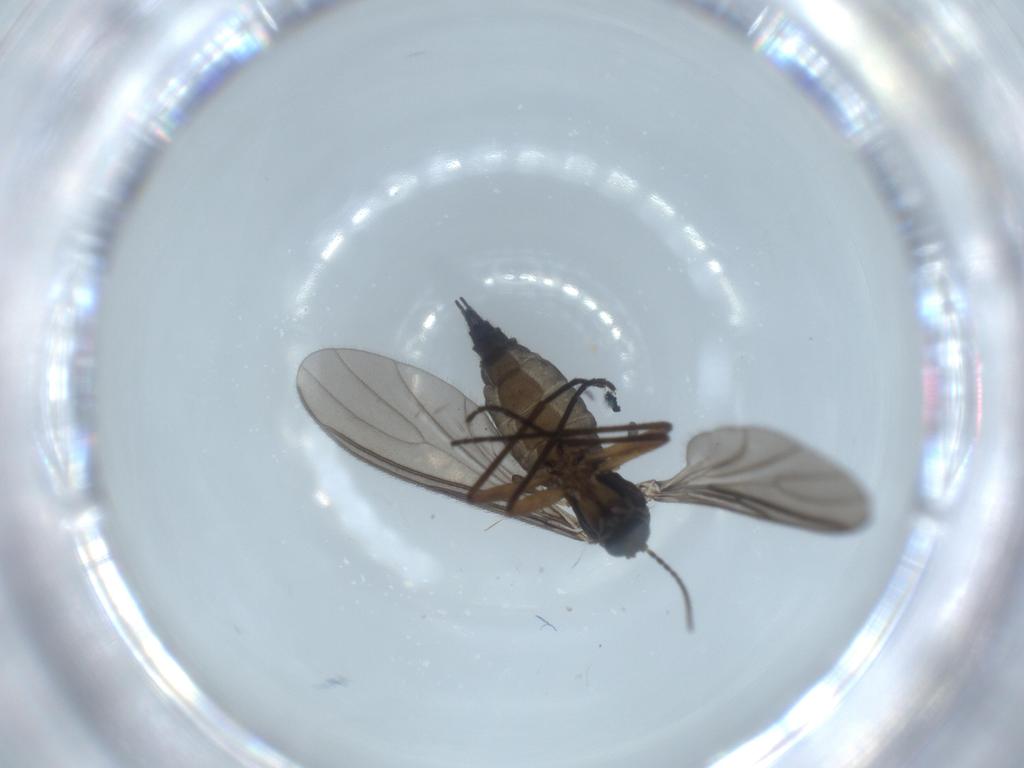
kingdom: Animalia
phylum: Arthropoda
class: Insecta
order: Diptera
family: Sciaridae
